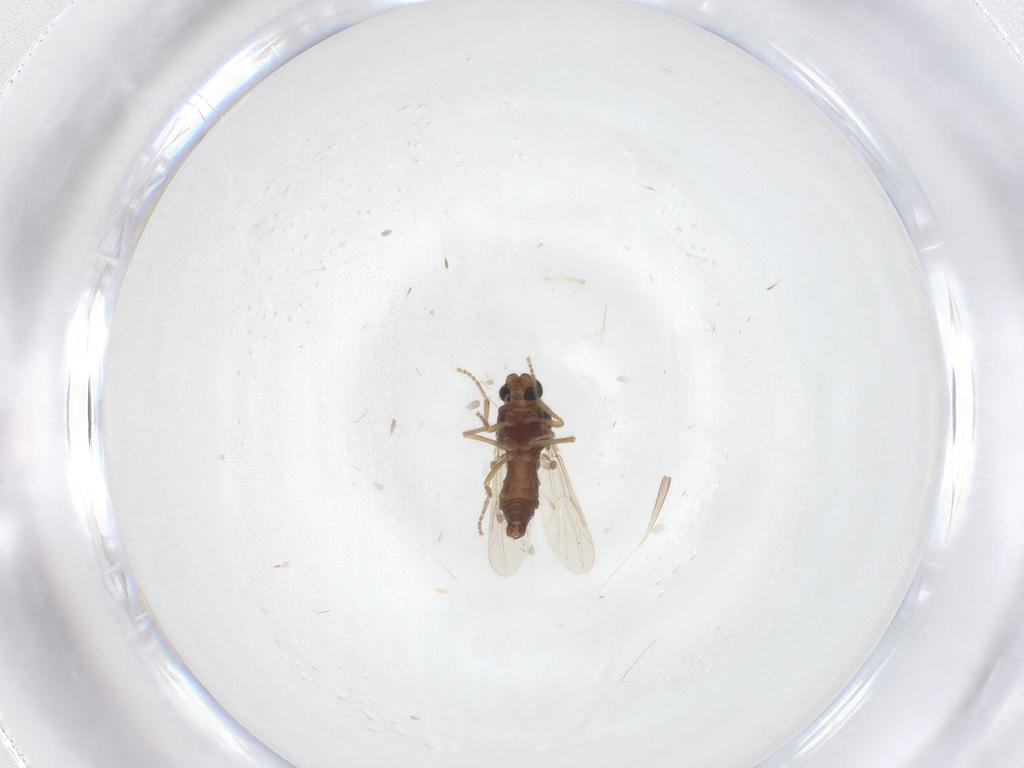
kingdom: Animalia
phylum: Arthropoda
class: Insecta
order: Diptera
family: Ceratopogonidae
